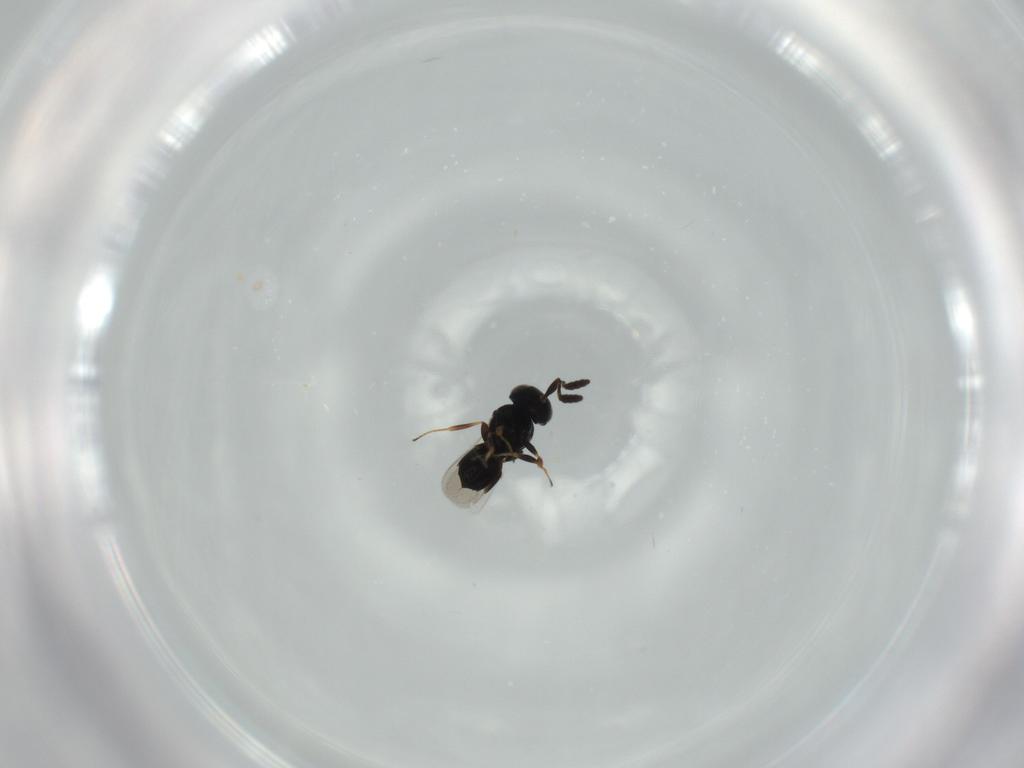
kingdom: Animalia
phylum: Arthropoda
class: Insecta
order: Hymenoptera
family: Scelionidae
